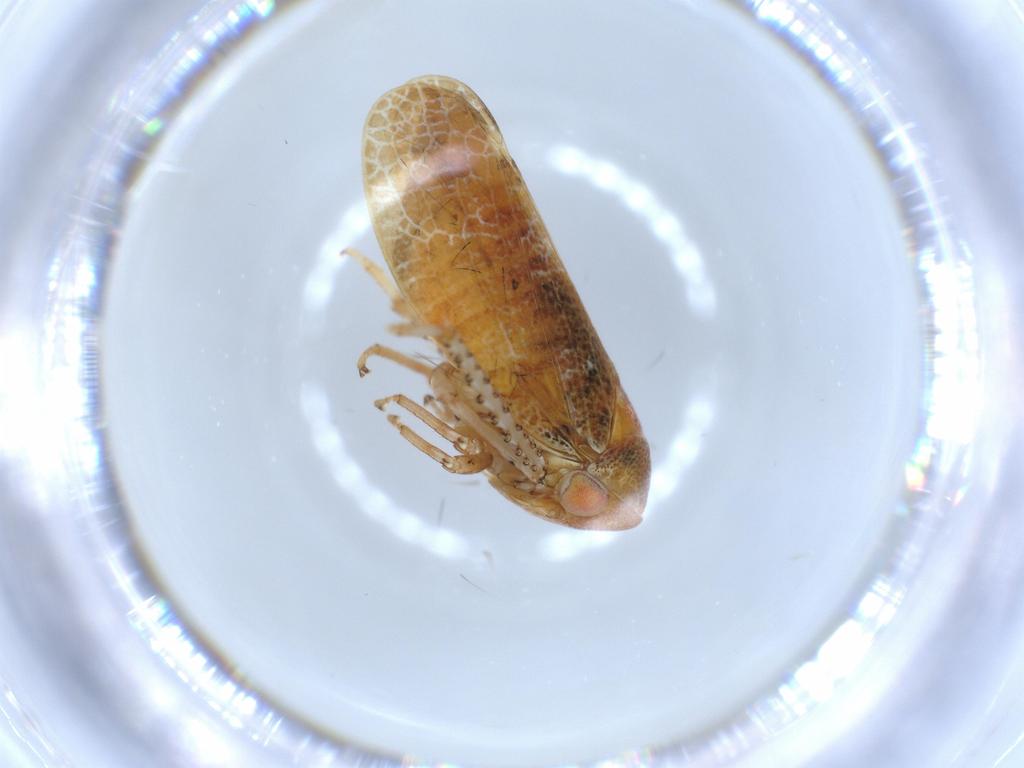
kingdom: Animalia
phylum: Arthropoda
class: Insecta
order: Hemiptera
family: Cicadellidae
